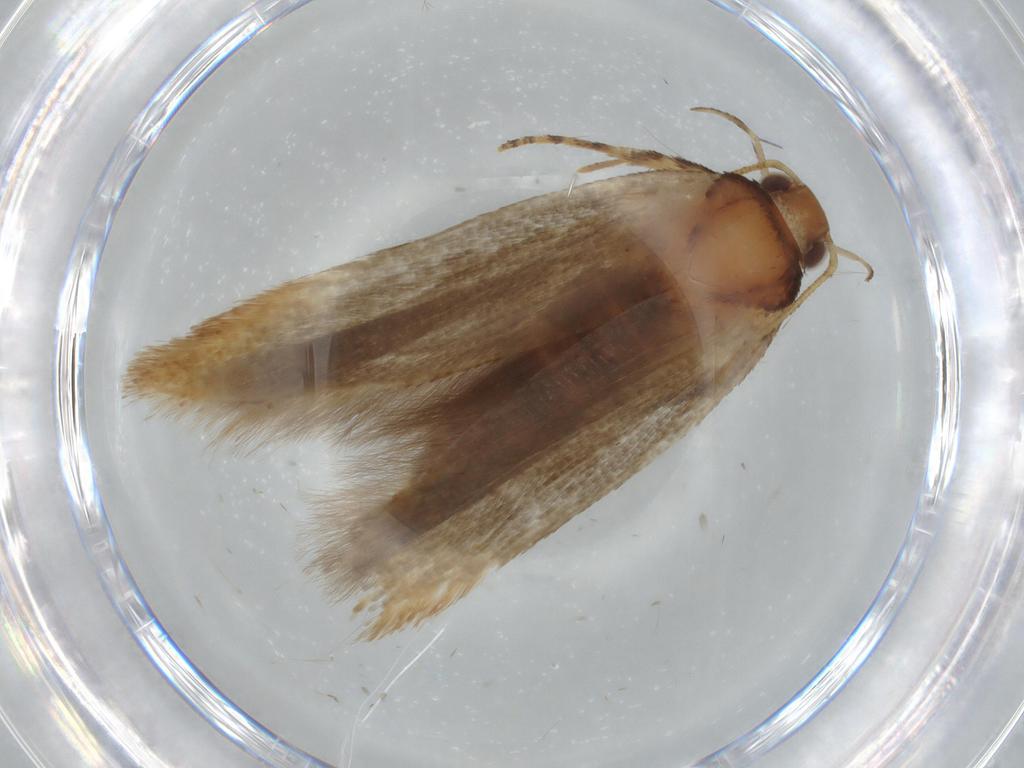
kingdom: Animalia
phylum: Arthropoda
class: Insecta
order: Lepidoptera
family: Gelechiidae
